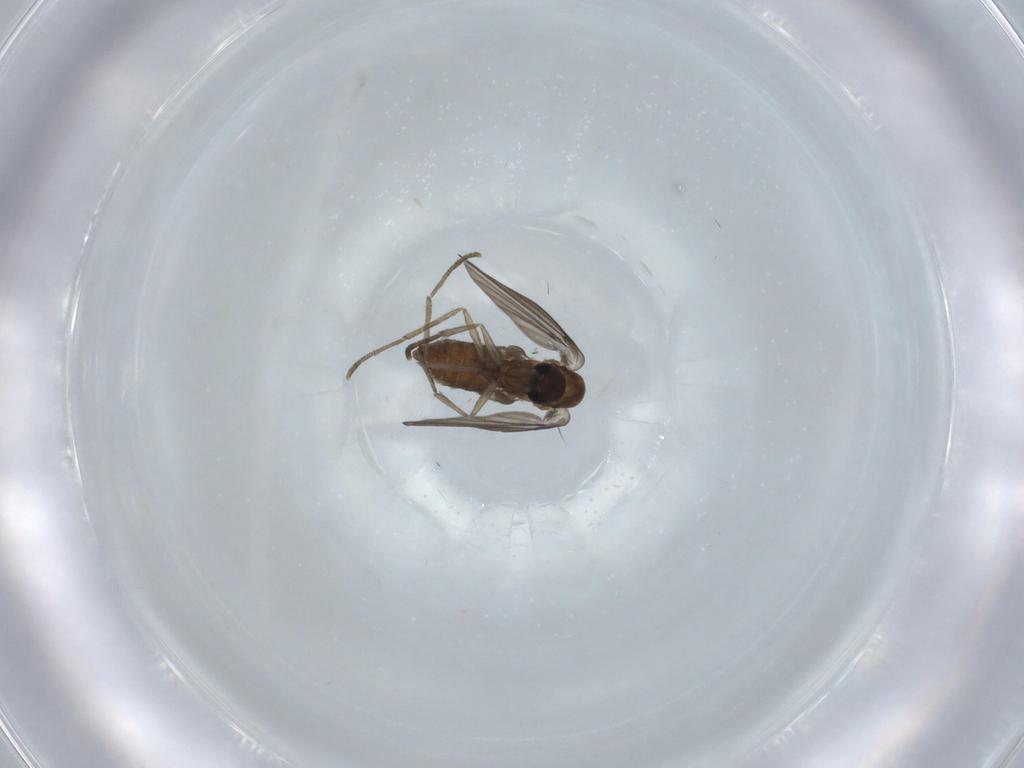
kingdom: Animalia
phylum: Arthropoda
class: Insecta
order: Diptera
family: Psychodidae
